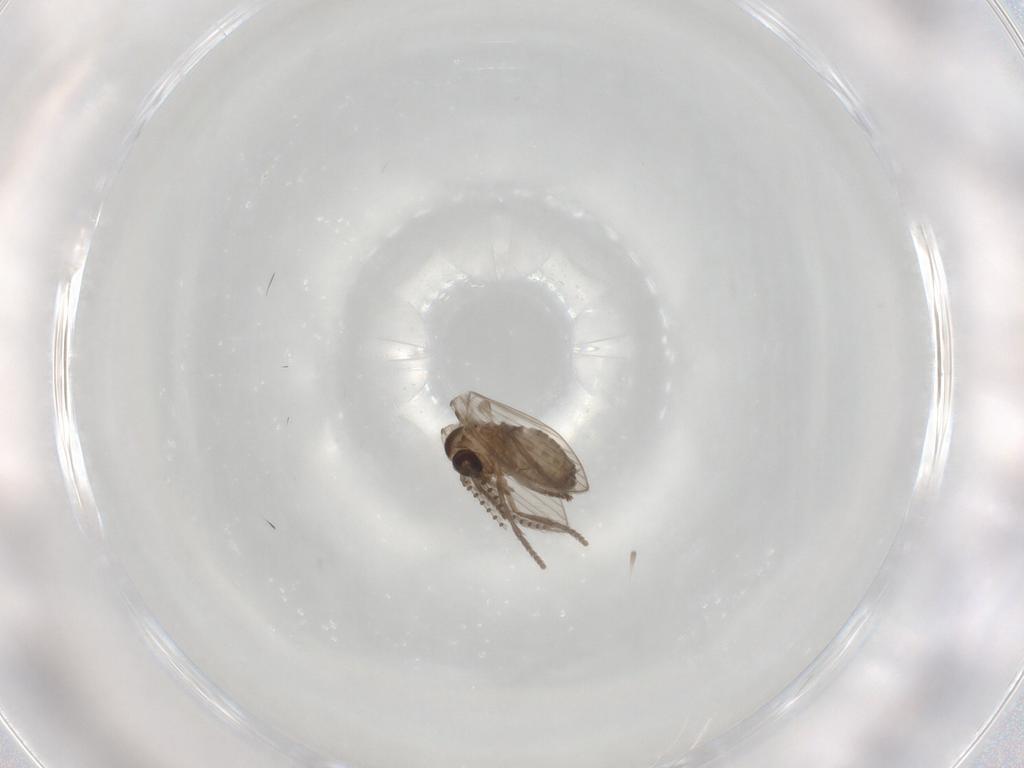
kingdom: Animalia
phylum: Arthropoda
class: Insecta
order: Diptera
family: Psychodidae
